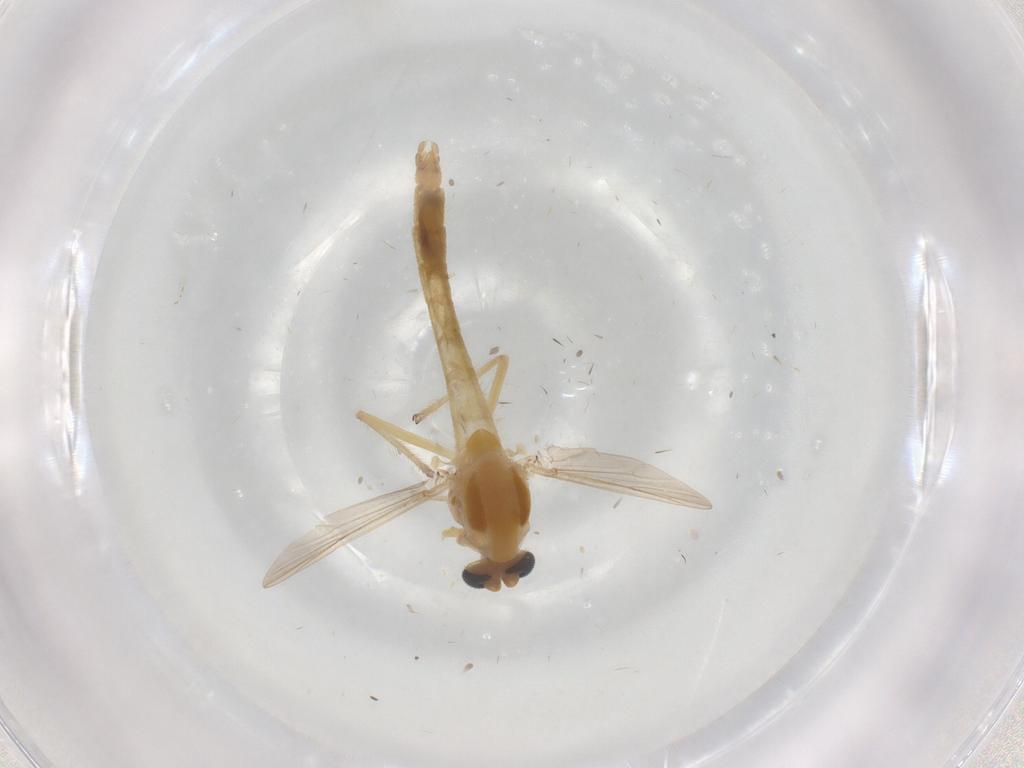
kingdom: Animalia
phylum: Arthropoda
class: Insecta
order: Diptera
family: Chironomidae
